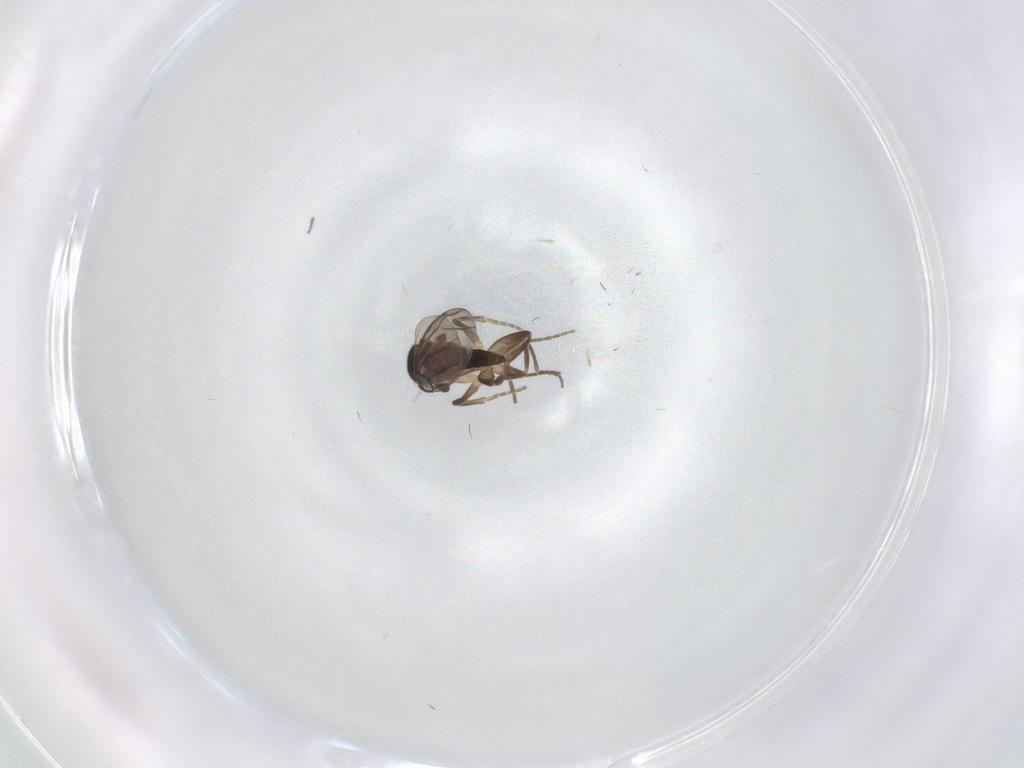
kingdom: Animalia
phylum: Arthropoda
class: Insecta
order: Diptera
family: Phoridae
